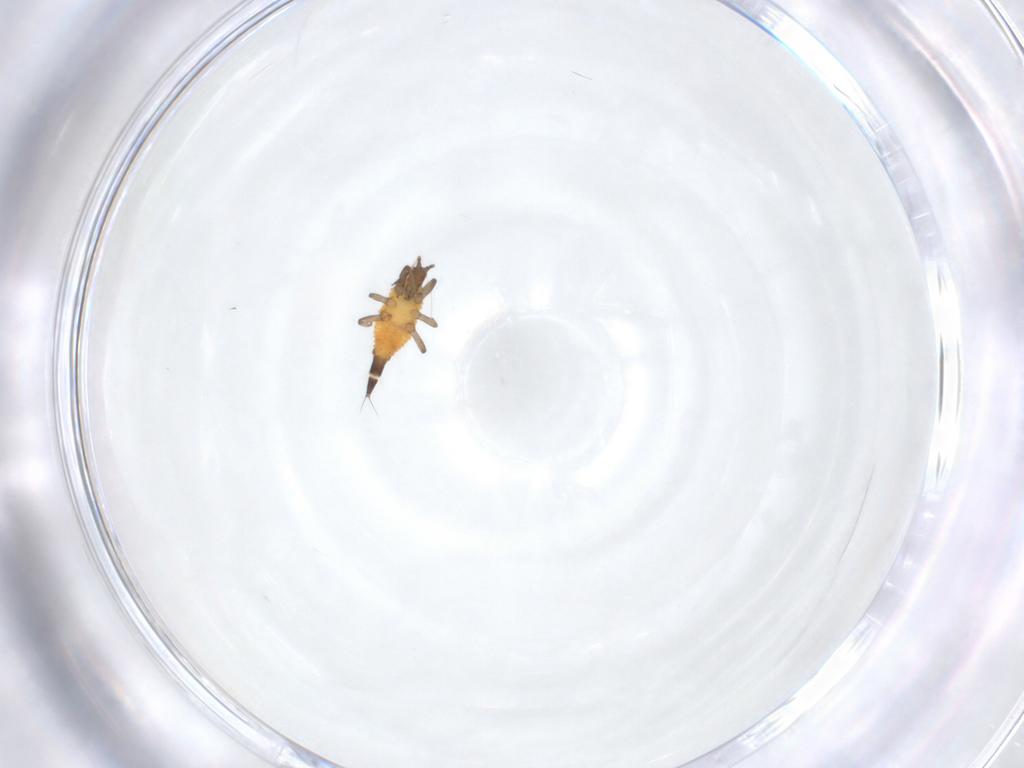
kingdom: Animalia
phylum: Arthropoda
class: Insecta
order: Thysanoptera
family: Phlaeothripidae
